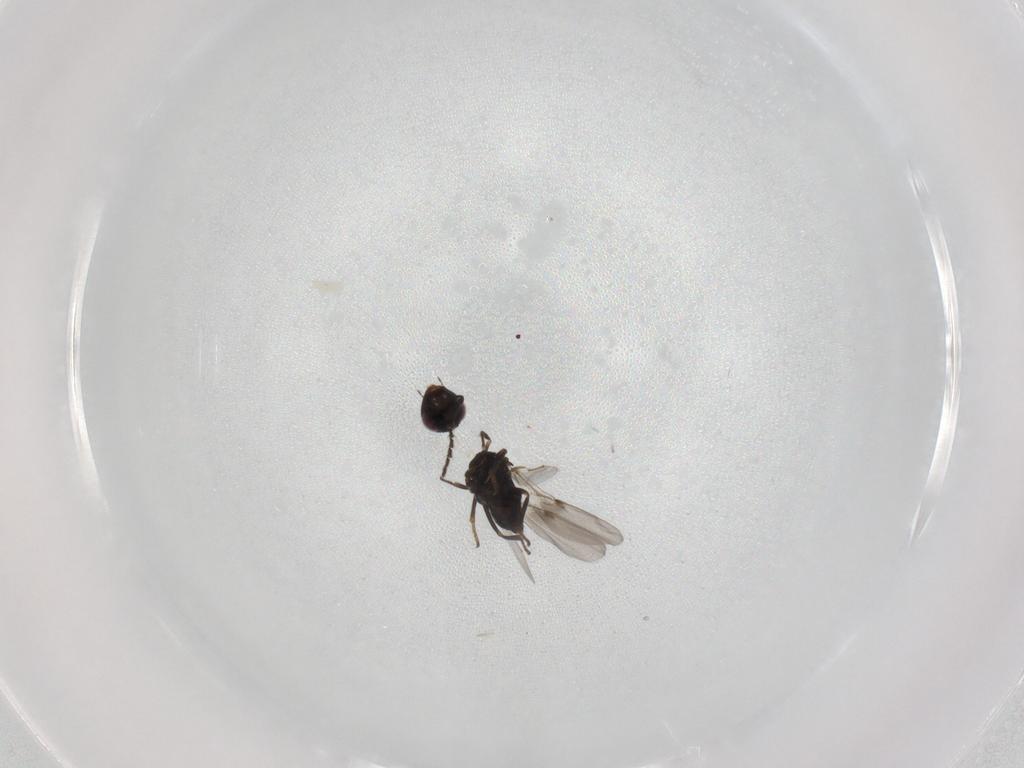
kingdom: Animalia
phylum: Arthropoda
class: Insecta
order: Hymenoptera
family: Encyrtidae
